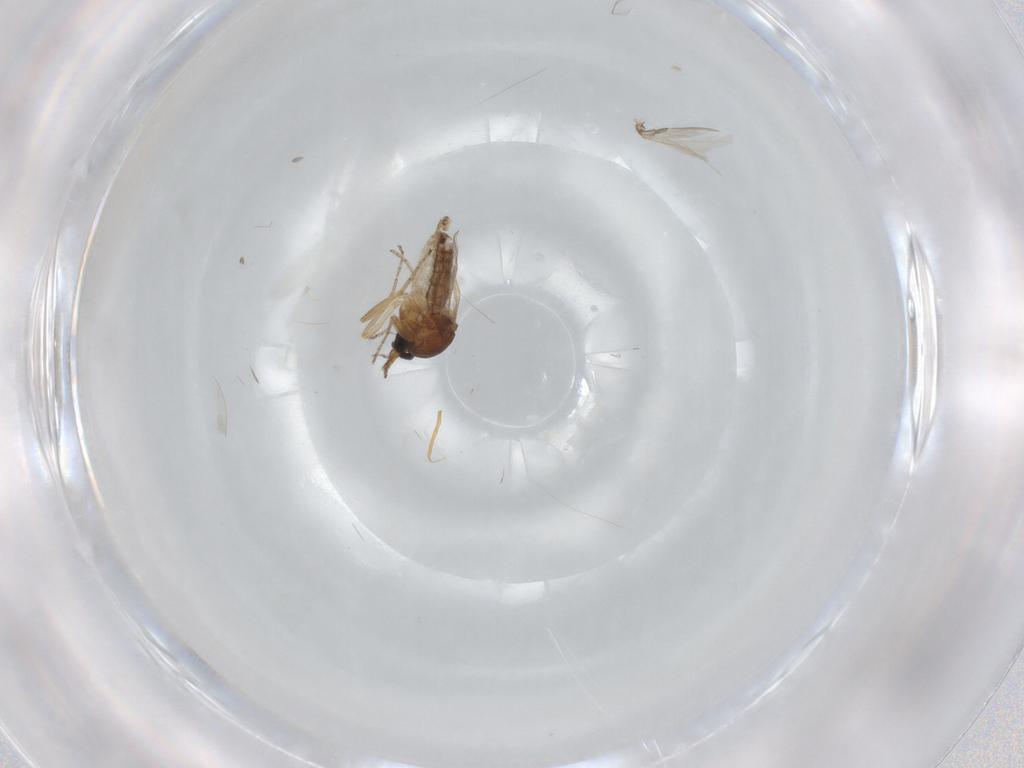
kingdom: Animalia
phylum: Arthropoda
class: Insecta
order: Diptera
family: Ceratopogonidae
